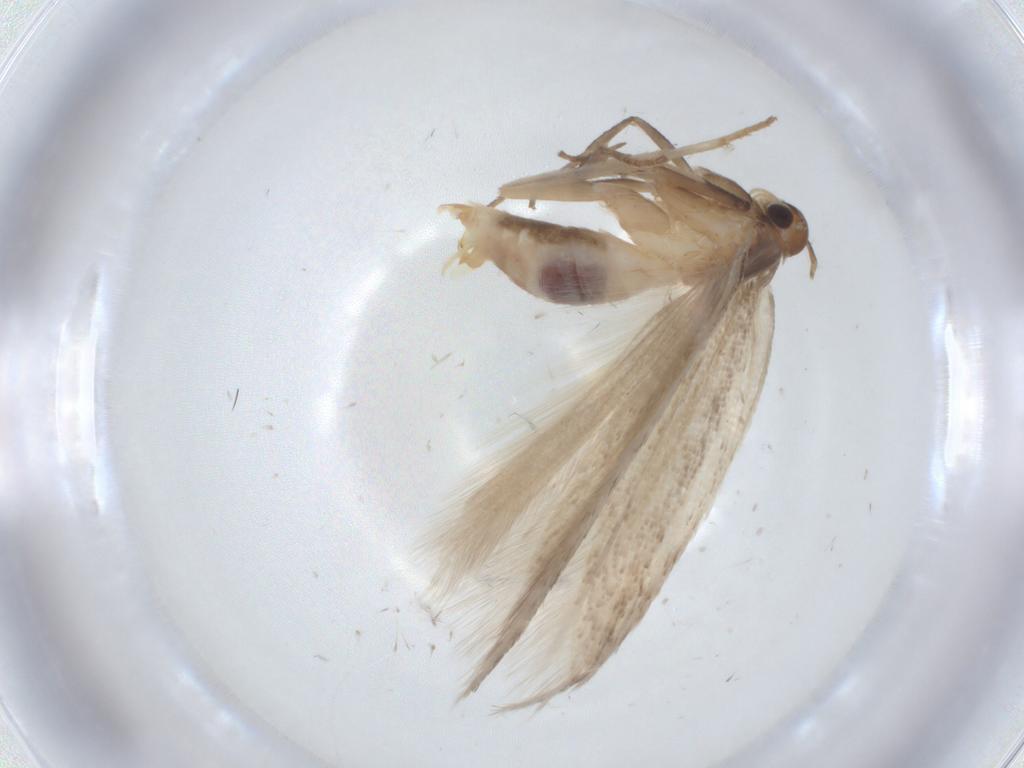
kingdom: Animalia
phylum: Arthropoda
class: Insecta
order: Lepidoptera
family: Gelechiidae
